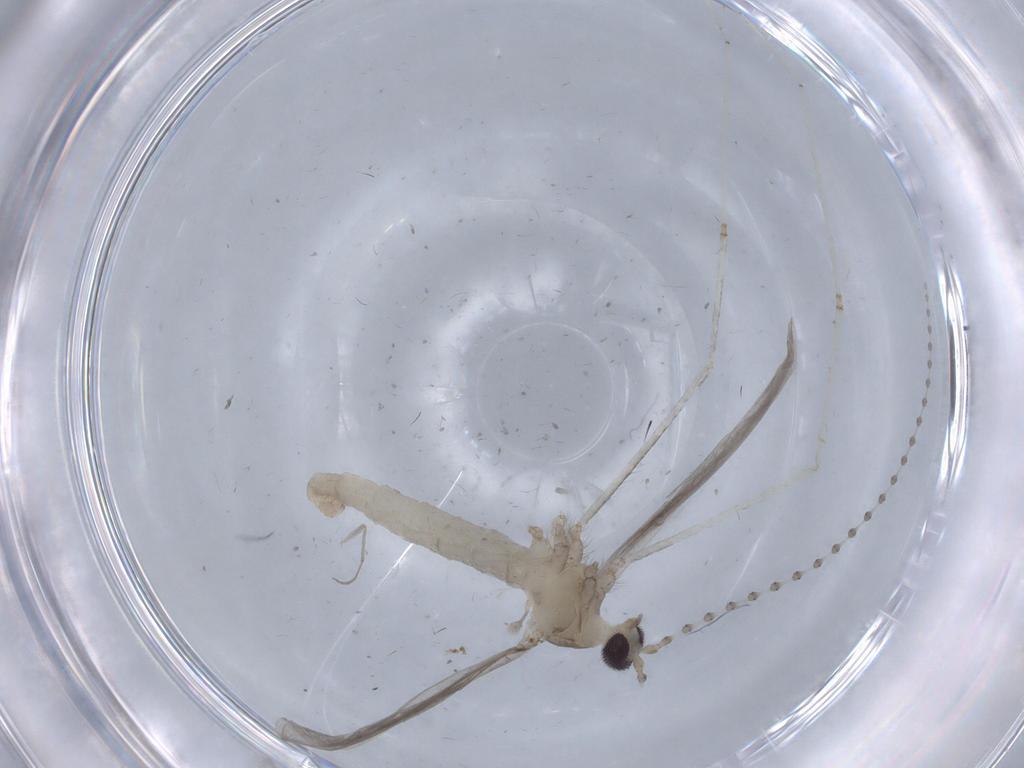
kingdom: Animalia
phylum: Arthropoda
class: Insecta
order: Diptera
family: Cecidomyiidae
